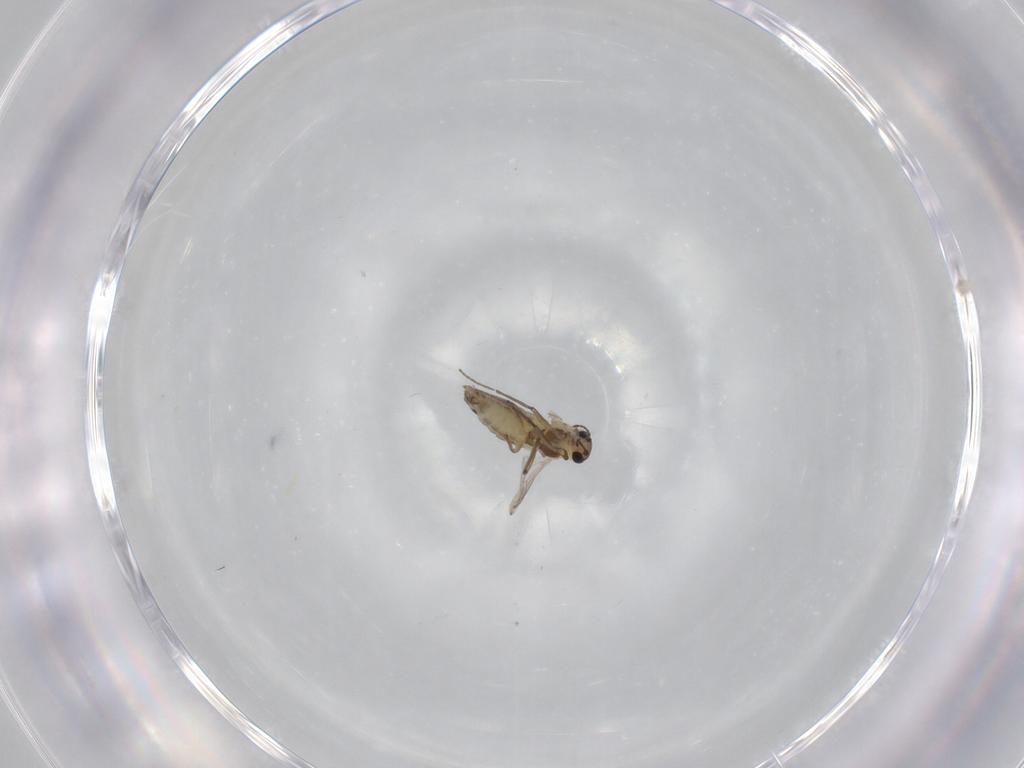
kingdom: Animalia
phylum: Arthropoda
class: Insecta
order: Diptera
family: Chironomidae
